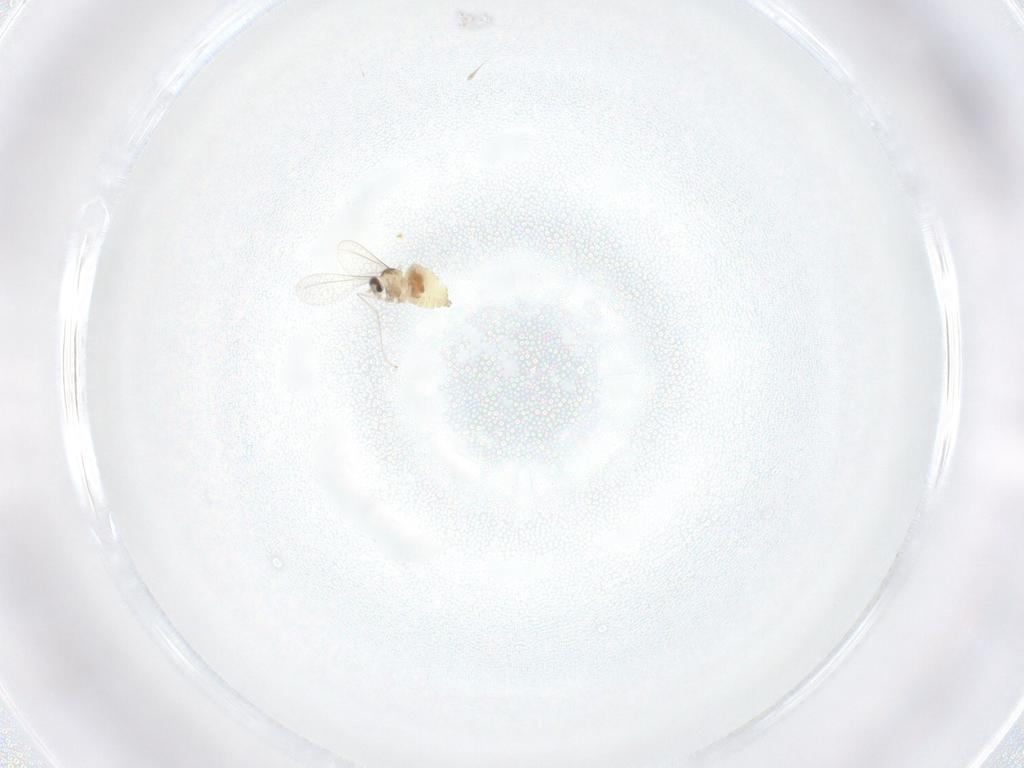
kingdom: Animalia
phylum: Arthropoda
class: Insecta
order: Diptera
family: Cecidomyiidae
